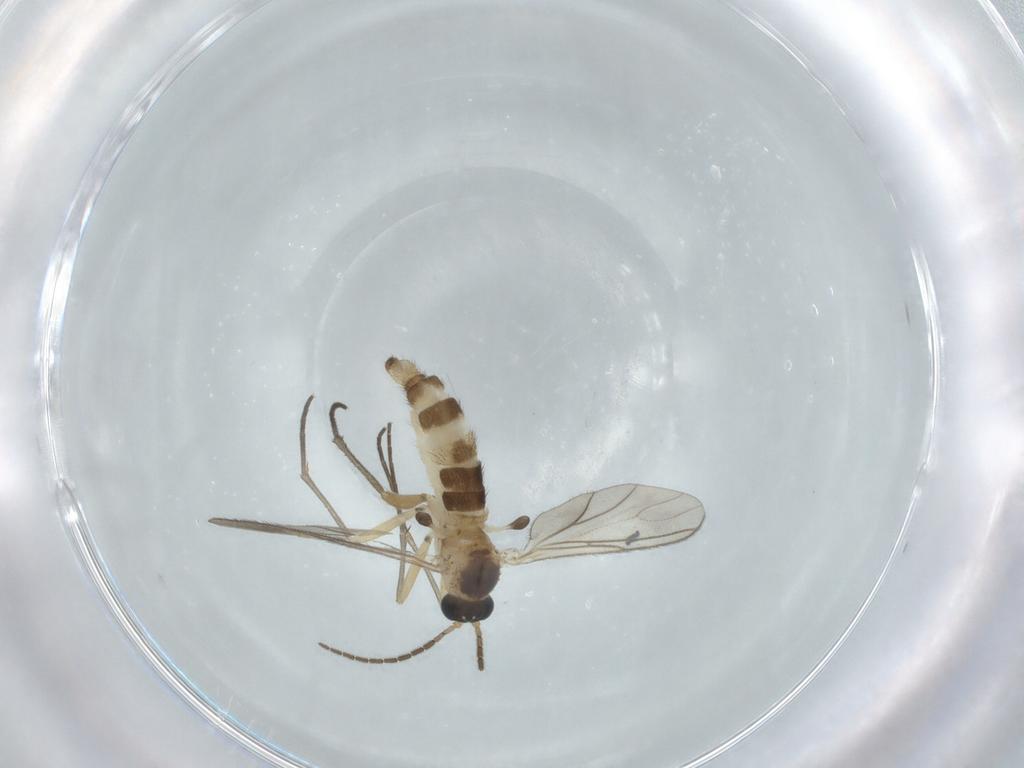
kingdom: Animalia
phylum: Arthropoda
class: Insecta
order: Diptera
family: Sciaridae
